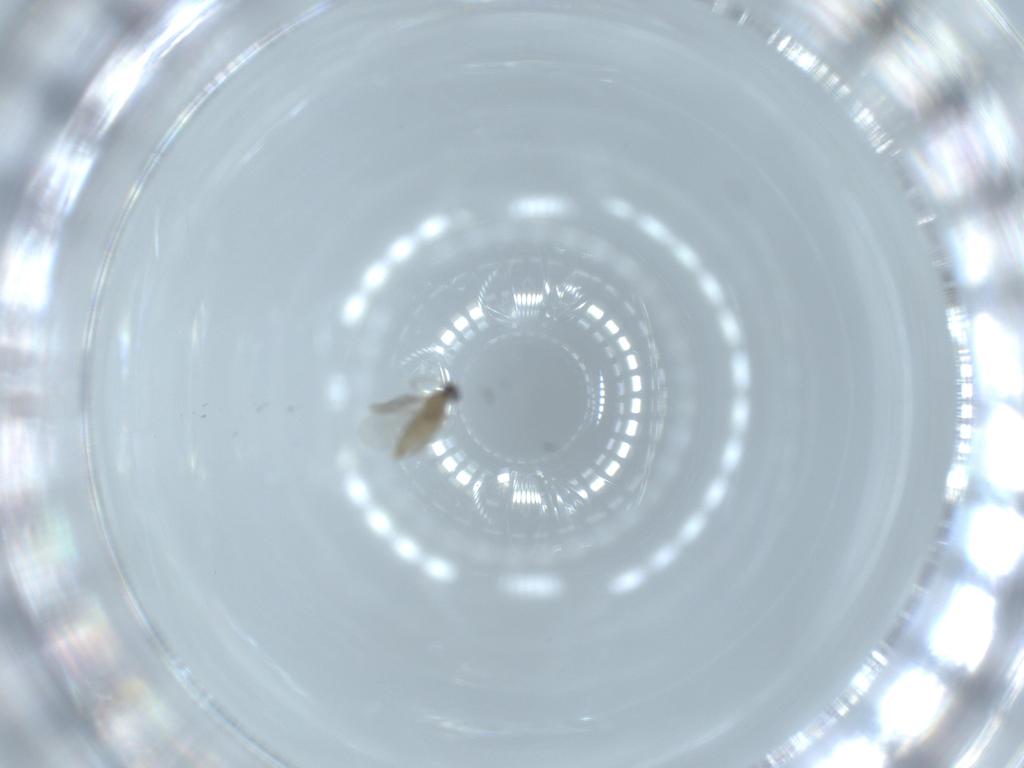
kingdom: Animalia
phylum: Arthropoda
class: Insecta
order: Diptera
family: Cecidomyiidae
